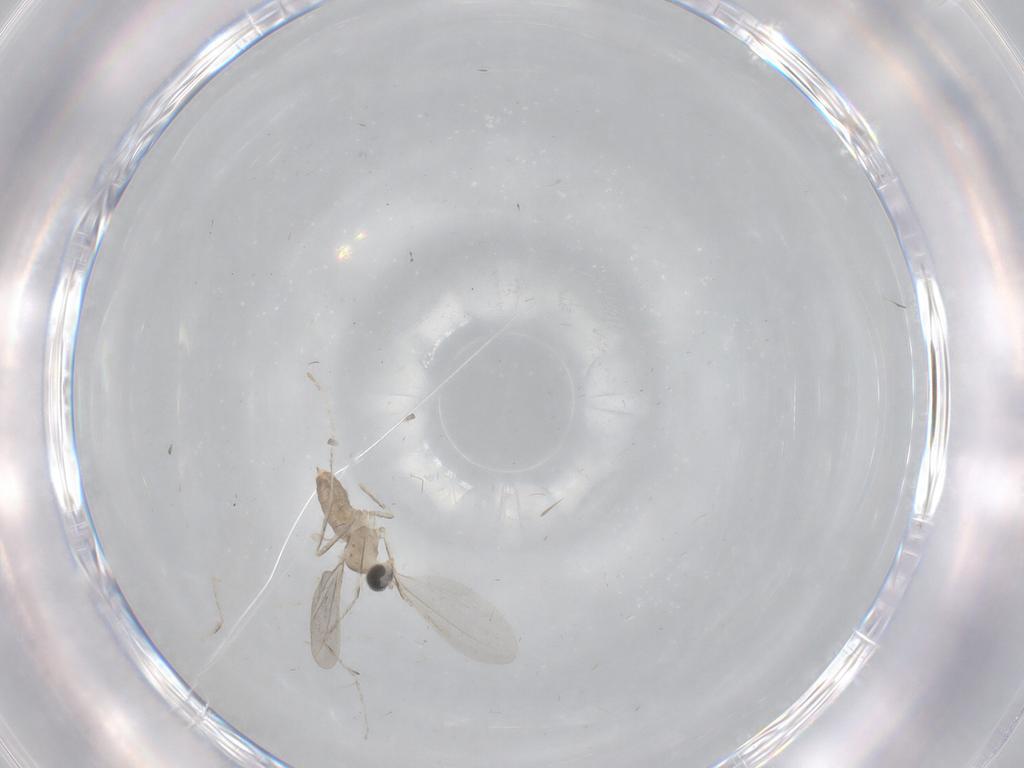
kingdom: Animalia
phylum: Arthropoda
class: Insecta
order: Diptera
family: Cecidomyiidae
